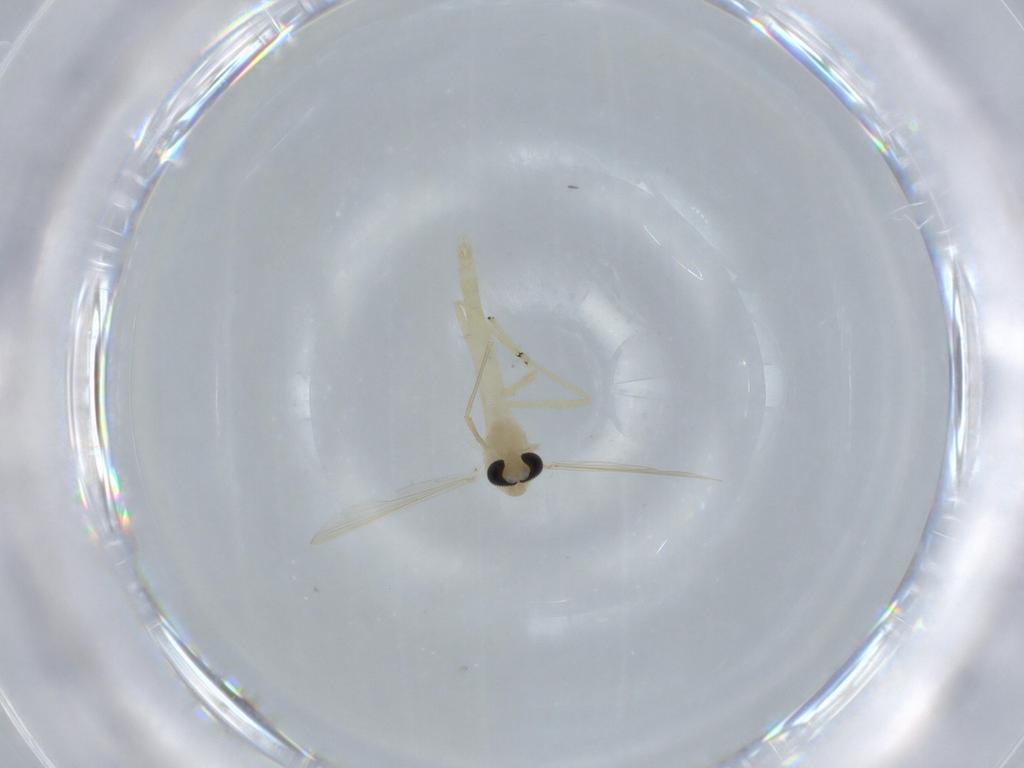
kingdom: Animalia
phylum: Arthropoda
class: Insecta
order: Diptera
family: Chironomidae
